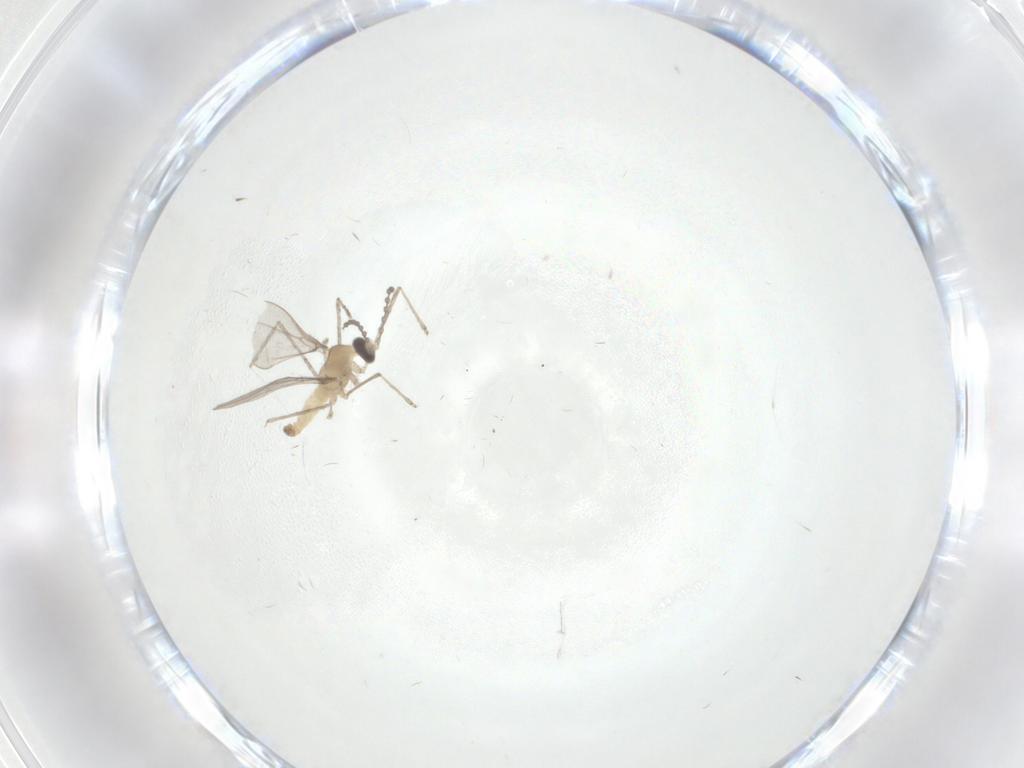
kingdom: Animalia
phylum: Arthropoda
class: Insecta
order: Diptera
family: Cecidomyiidae
